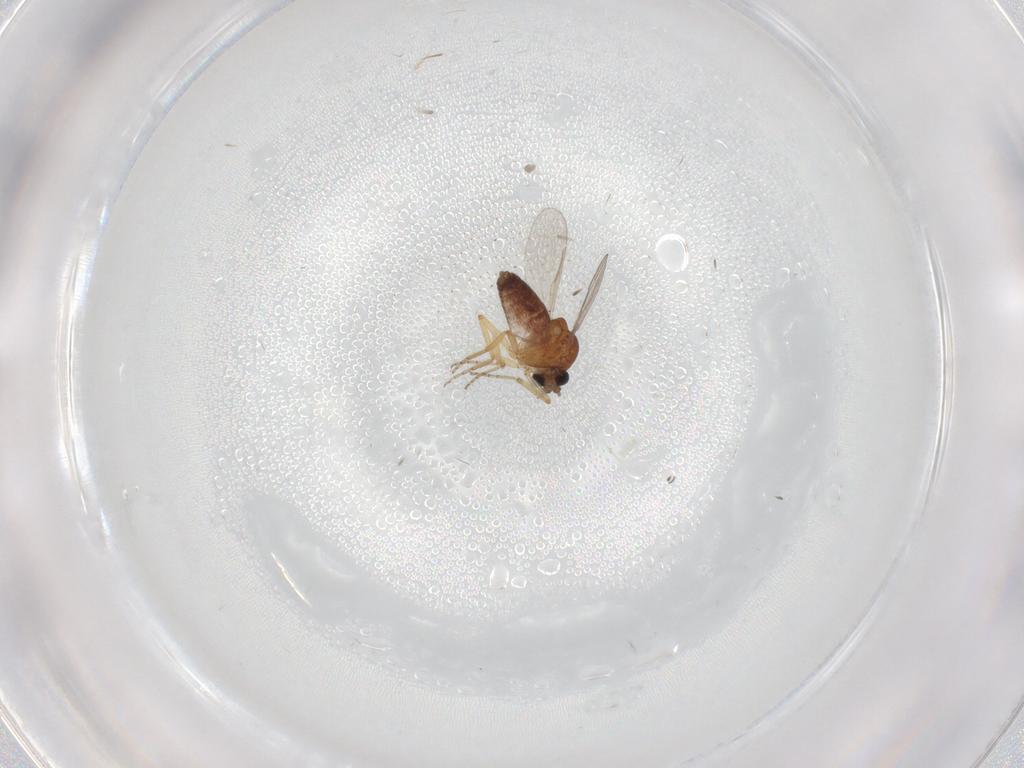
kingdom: Animalia
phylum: Arthropoda
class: Insecta
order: Diptera
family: Ceratopogonidae
